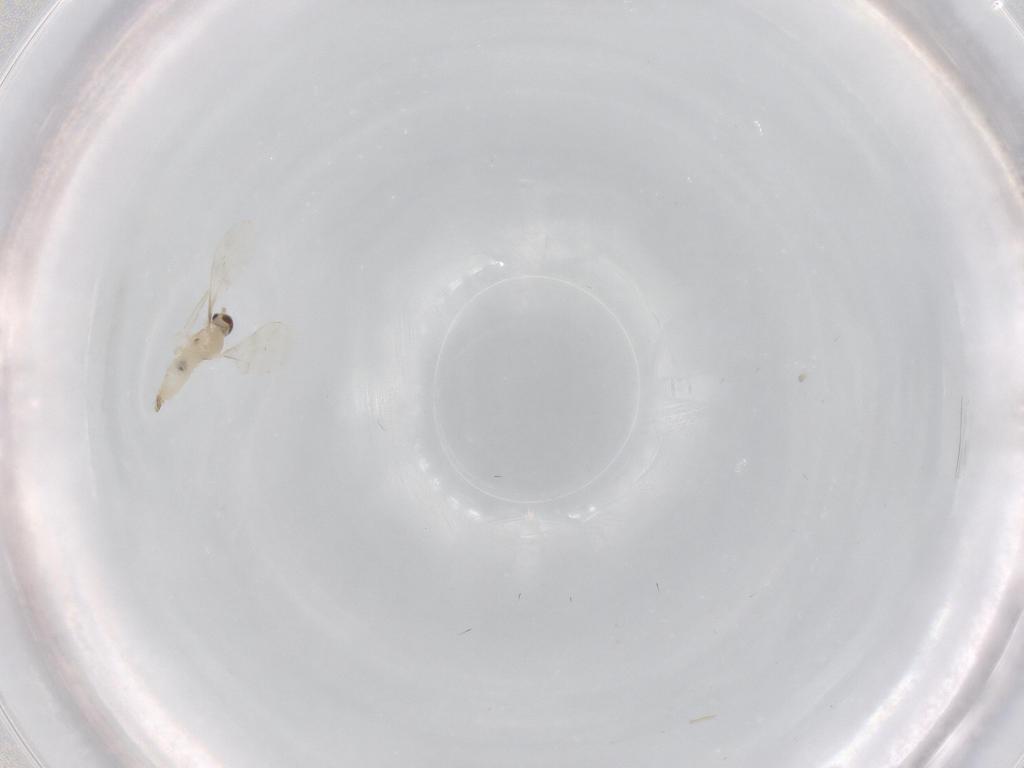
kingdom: Animalia
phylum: Arthropoda
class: Insecta
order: Diptera
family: Cecidomyiidae
